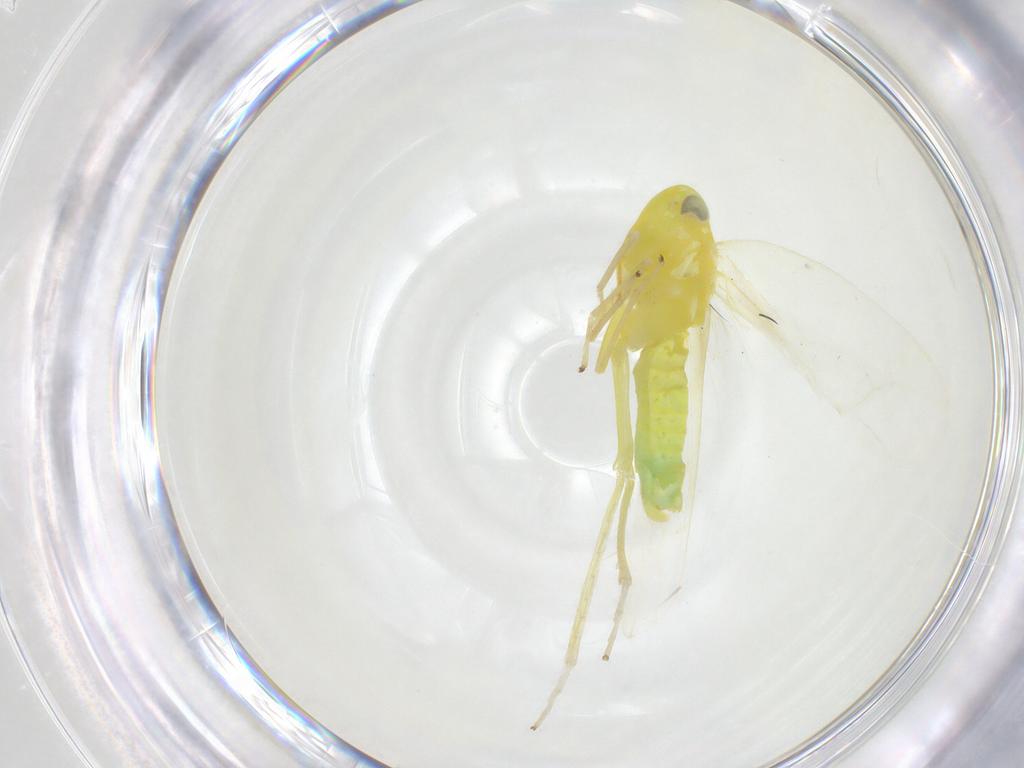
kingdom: Animalia
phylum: Arthropoda
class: Insecta
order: Hemiptera
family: Cicadellidae
